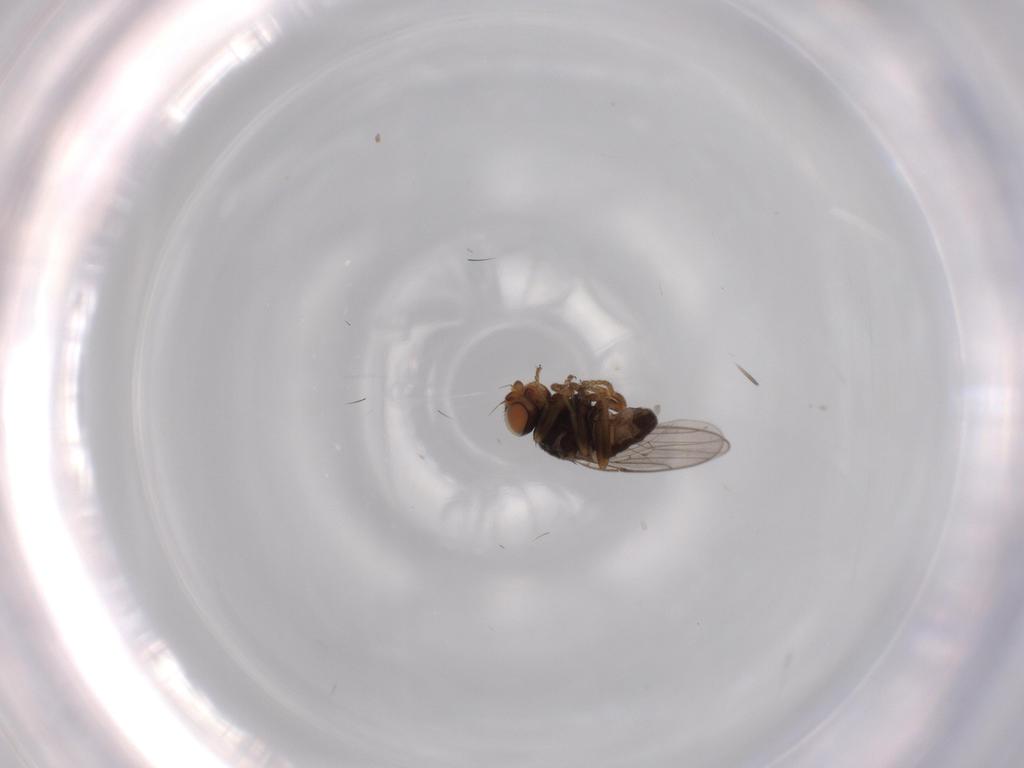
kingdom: Animalia
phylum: Arthropoda
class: Insecta
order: Diptera
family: Chloropidae
